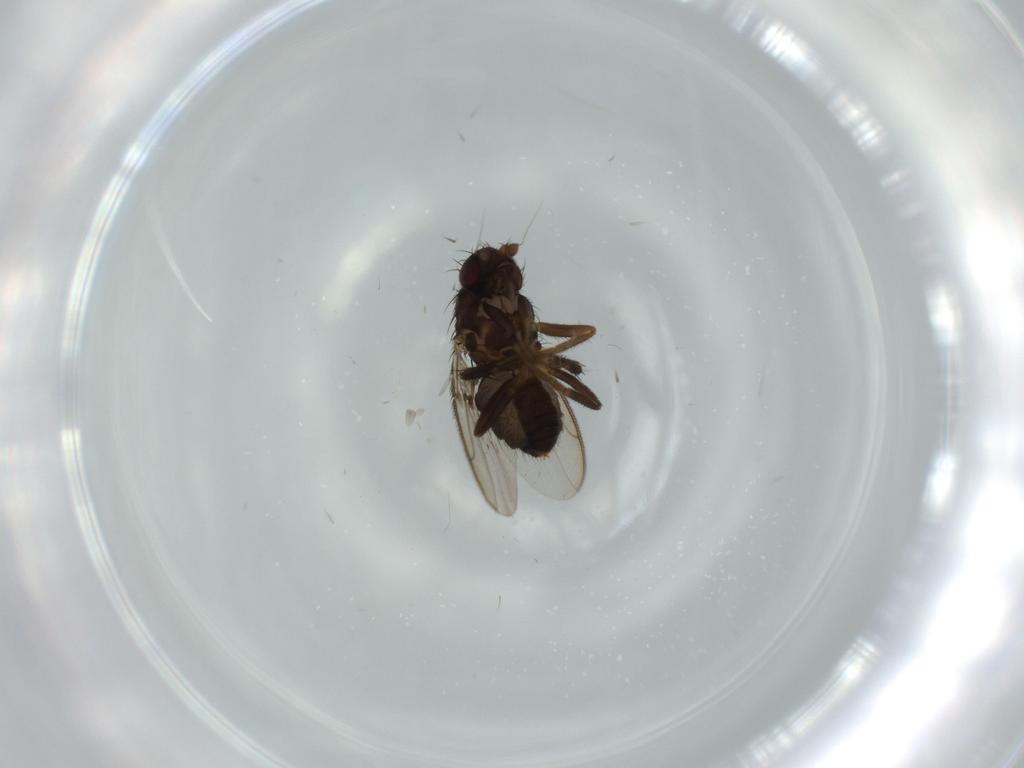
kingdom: Animalia
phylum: Arthropoda
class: Insecta
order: Diptera
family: Sphaeroceridae
